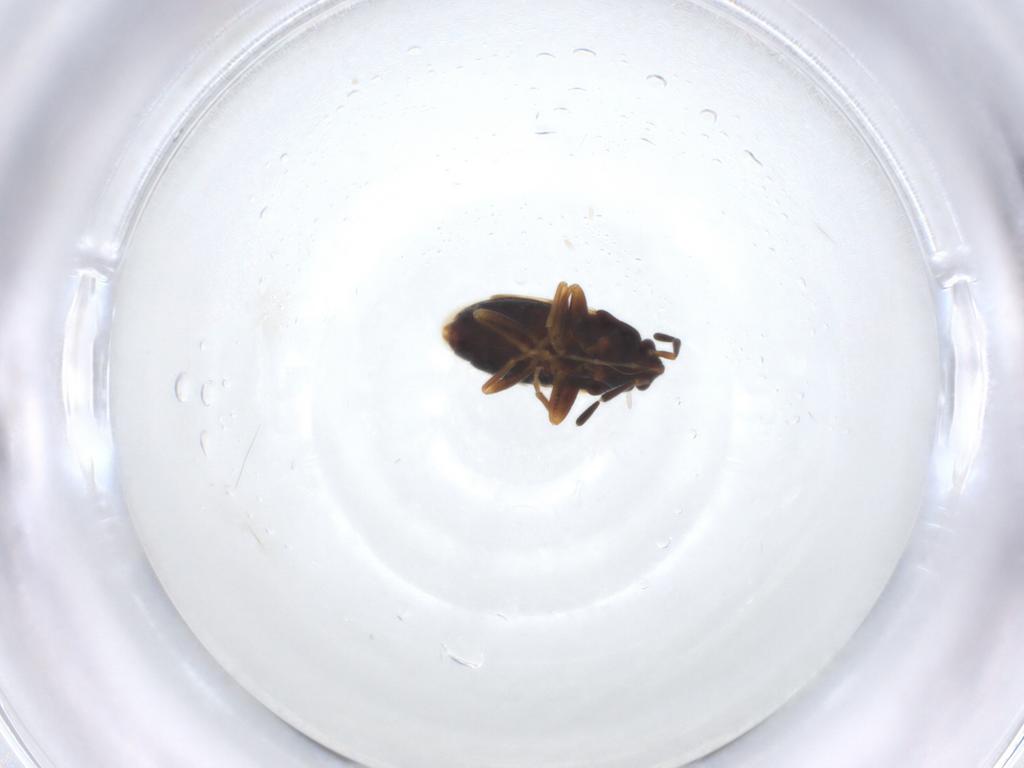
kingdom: Animalia
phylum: Arthropoda
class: Insecta
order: Hemiptera
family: Rhyparochromidae
